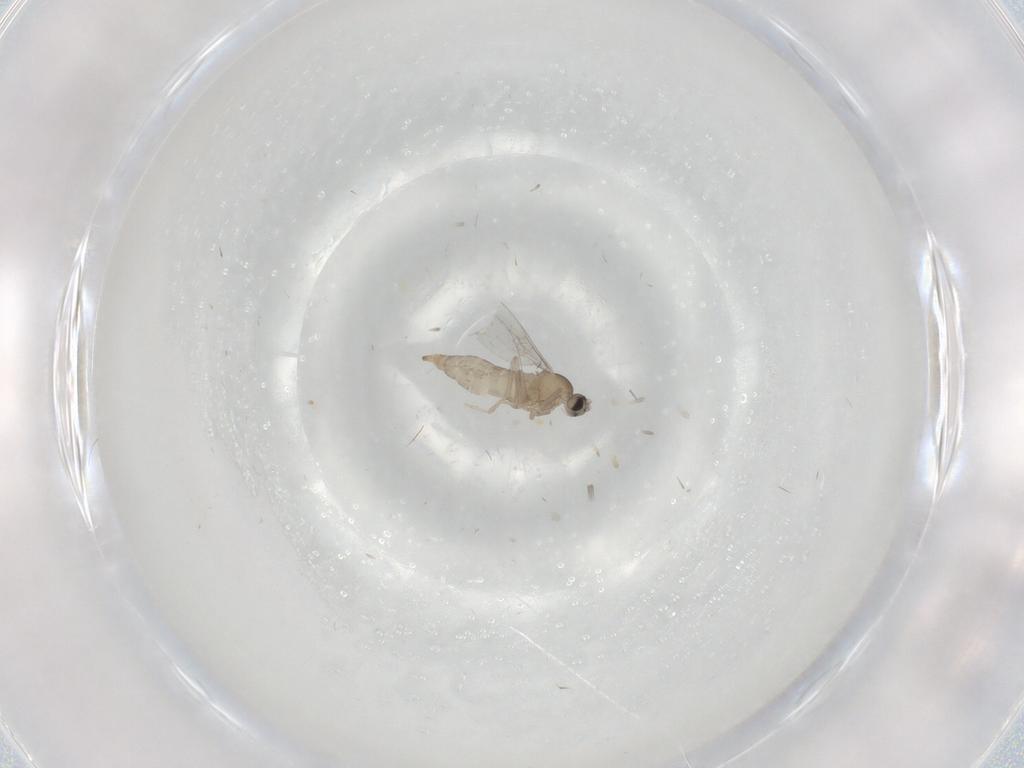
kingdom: Animalia
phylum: Arthropoda
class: Insecta
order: Diptera
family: Cecidomyiidae
